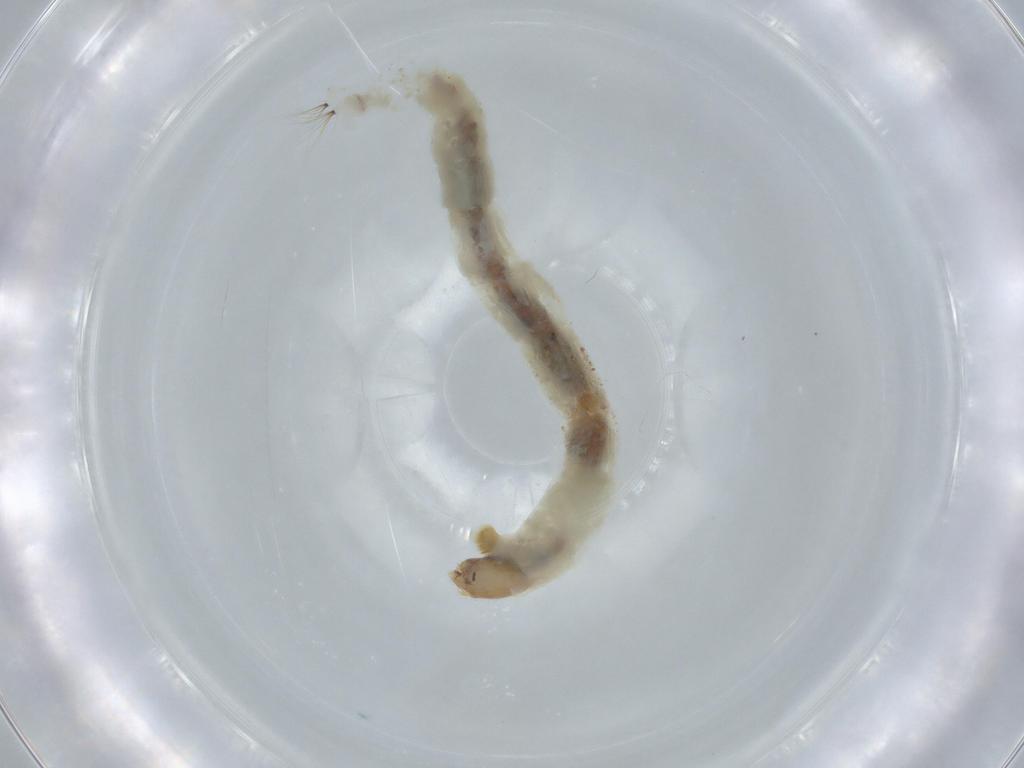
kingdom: Animalia
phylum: Arthropoda
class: Insecta
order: Diptera
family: Chironomidae
